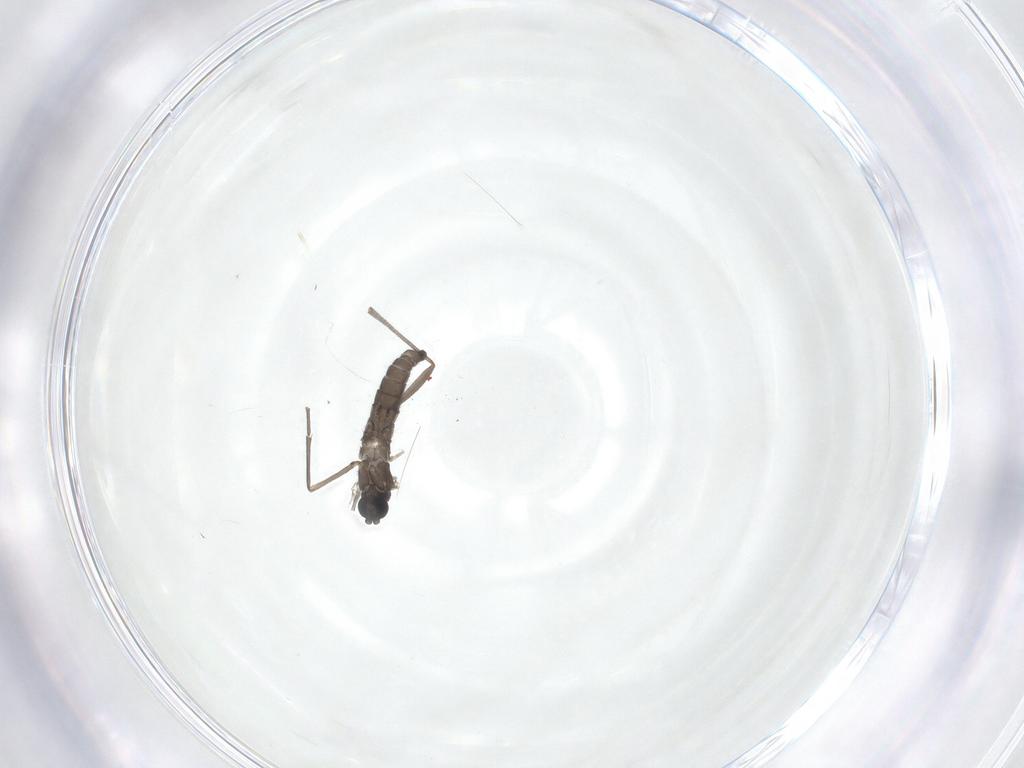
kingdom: Animalia
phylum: Arthropoda
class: Insecta
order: Diptera
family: Sciaridae
